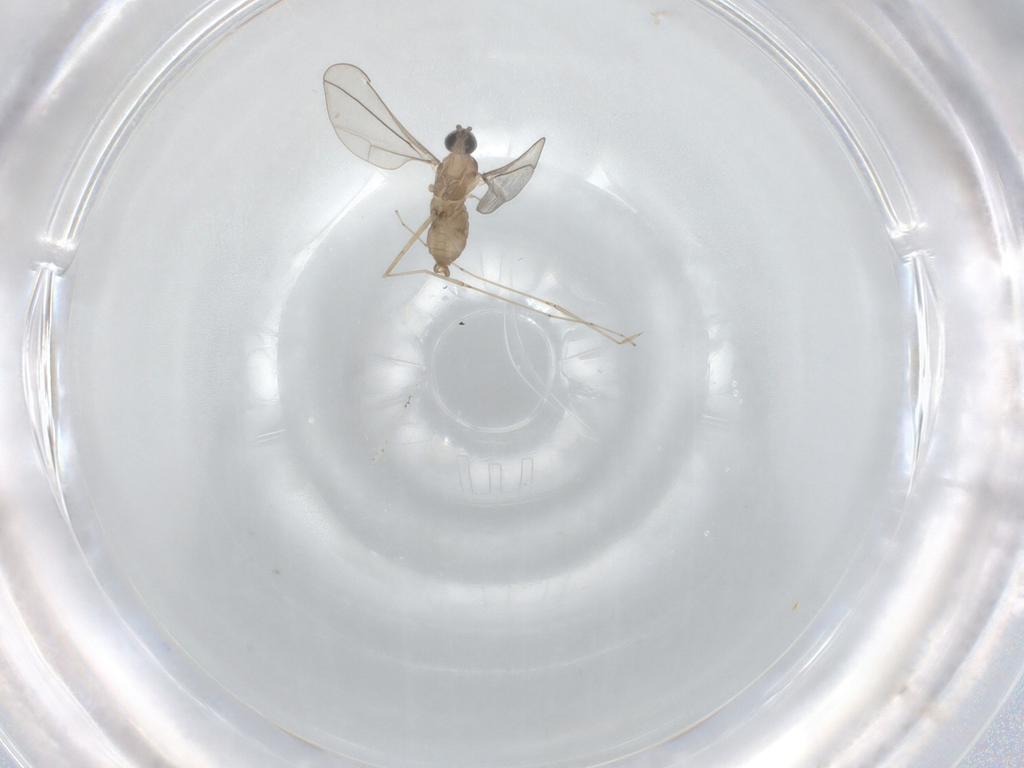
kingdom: Animalia
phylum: Arthropoda
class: Insecta
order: Diptera
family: Cecidomyiidae
